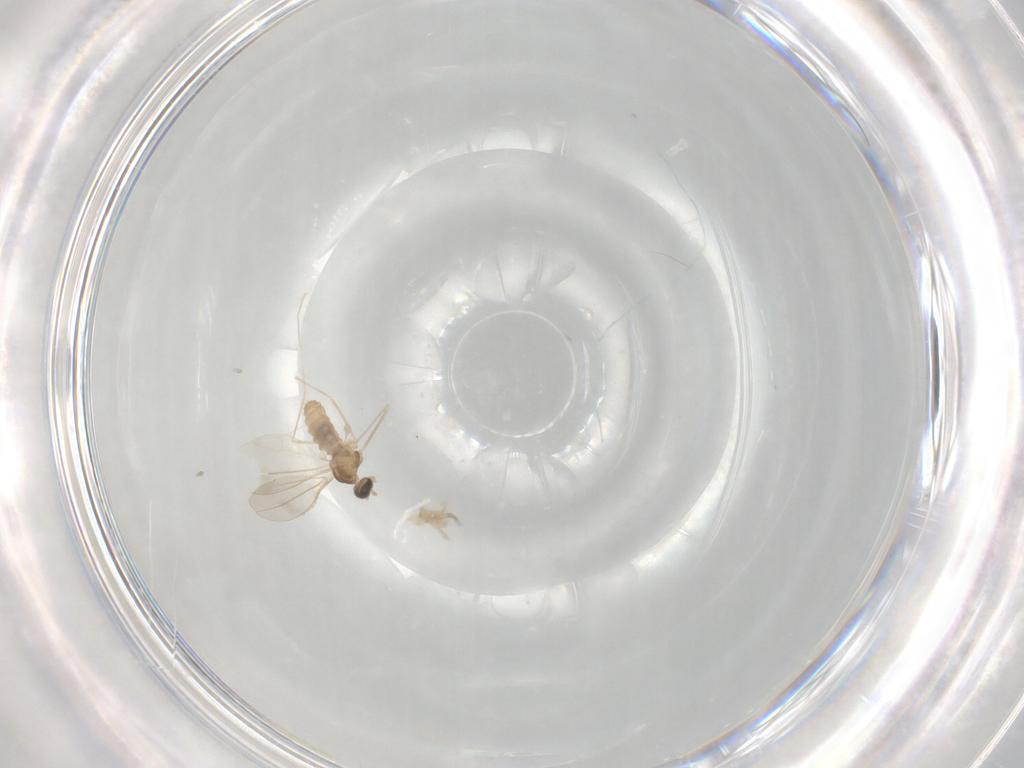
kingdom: Animalia
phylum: Arthropoda
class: Insecta
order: Diptera
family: Cecidomyiidae
